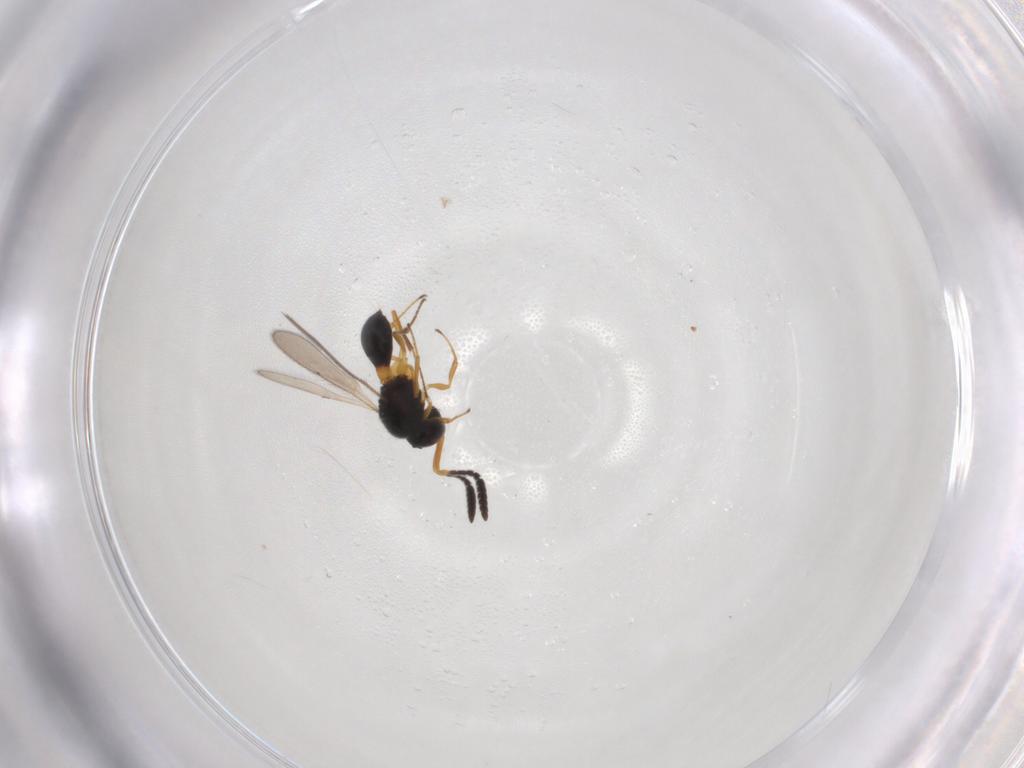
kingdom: Animalia
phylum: Arthropoda
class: Insecta
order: Hymenoptera
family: Scelionidae
